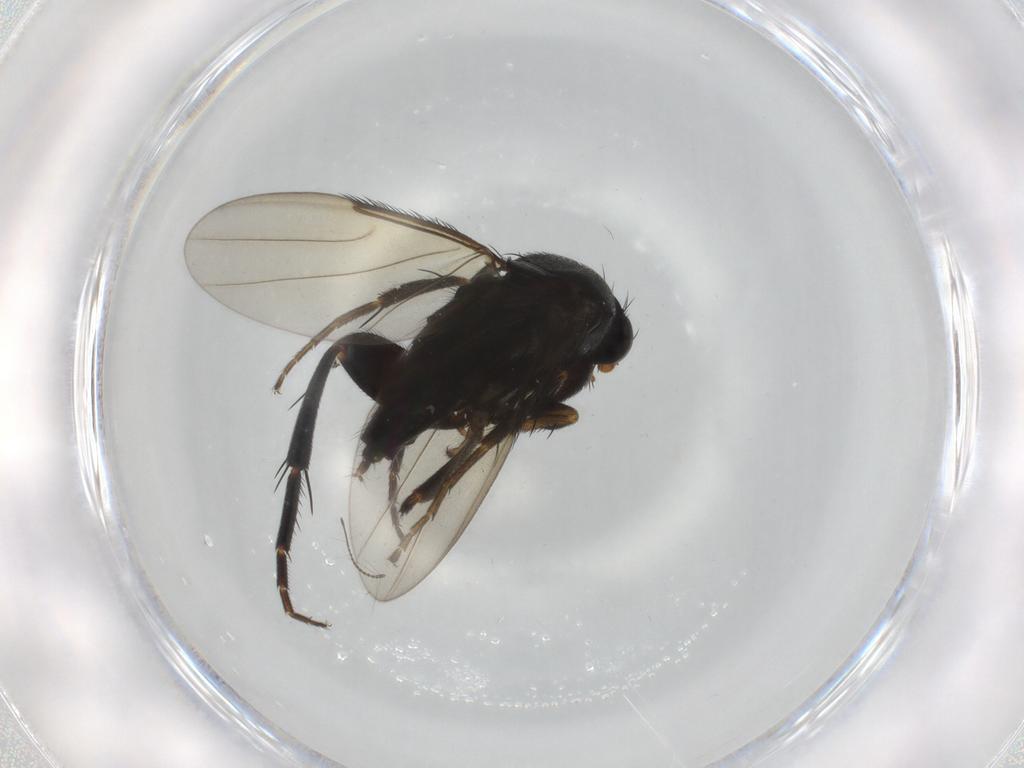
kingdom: Animalia
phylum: Arthropoda
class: Insecta
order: Diptera
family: Phoridae
